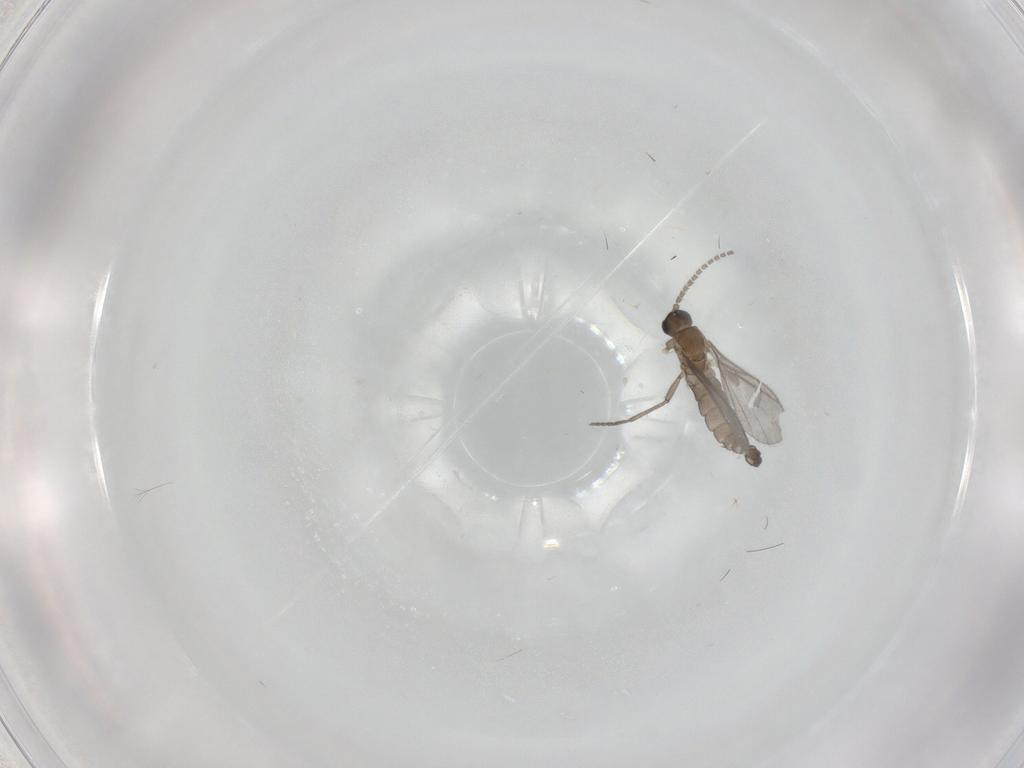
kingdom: Animalia
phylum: Arthropoda
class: Insecta
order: Diptera
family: Sciaridae
